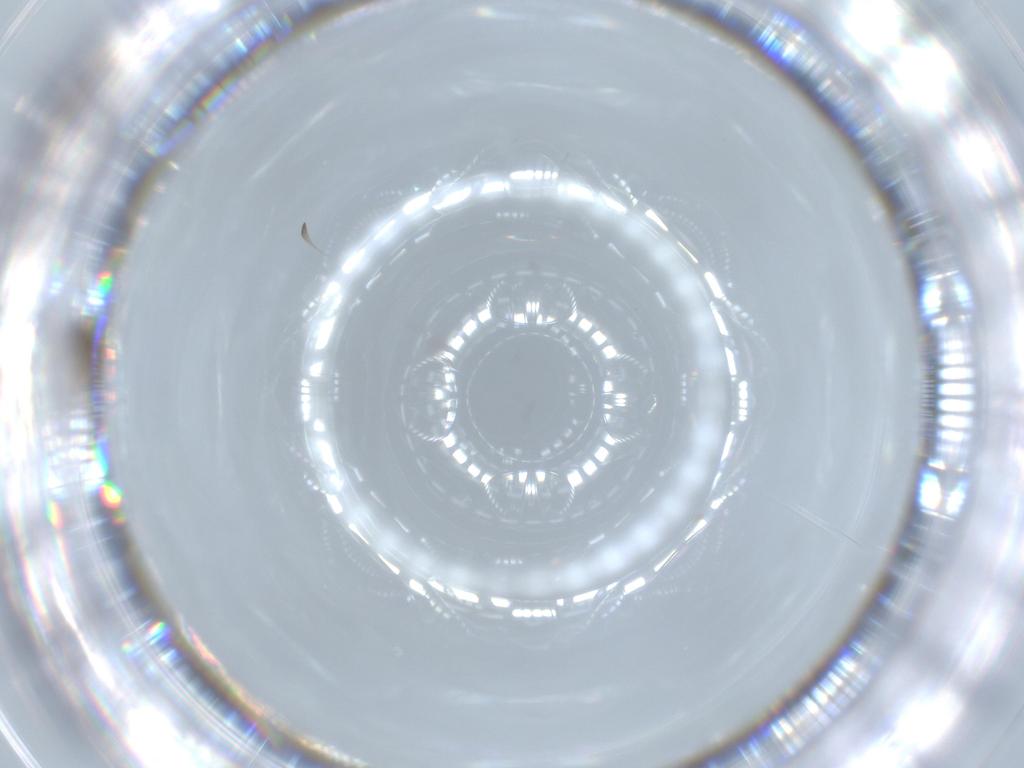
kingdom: Animalia
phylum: Arthropoda
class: Insecta
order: Diptera
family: Cecidomyiidae
